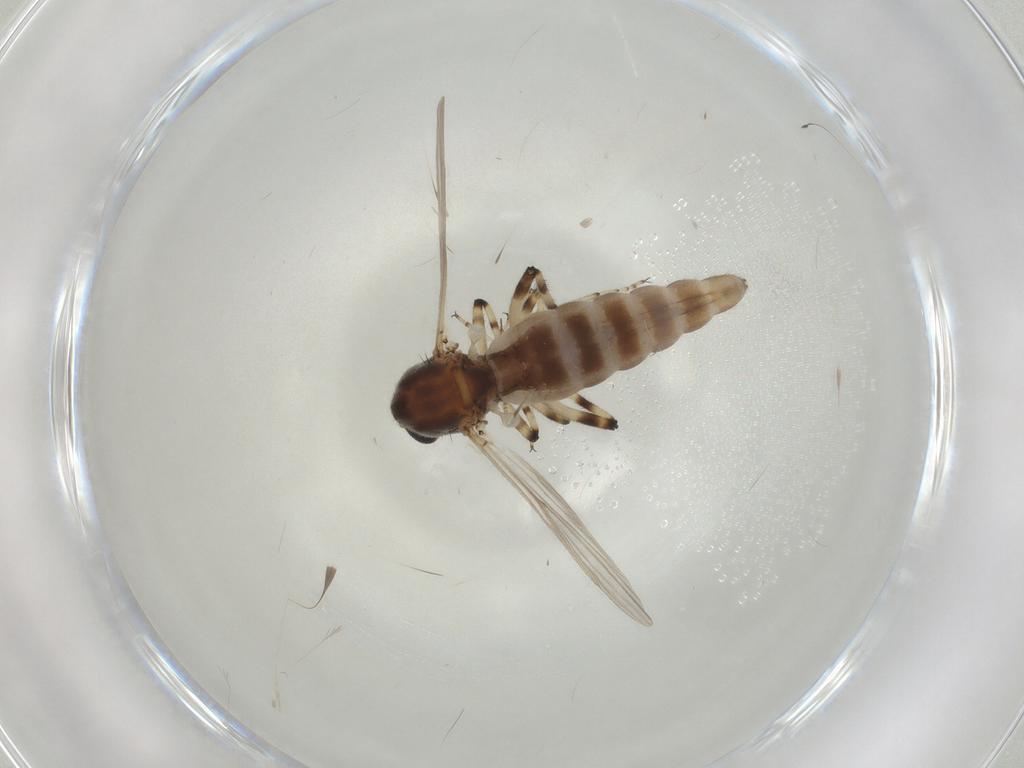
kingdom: Animalia
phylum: Arthropoda
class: Insecta
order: Diptera
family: Ceratopogonidae
